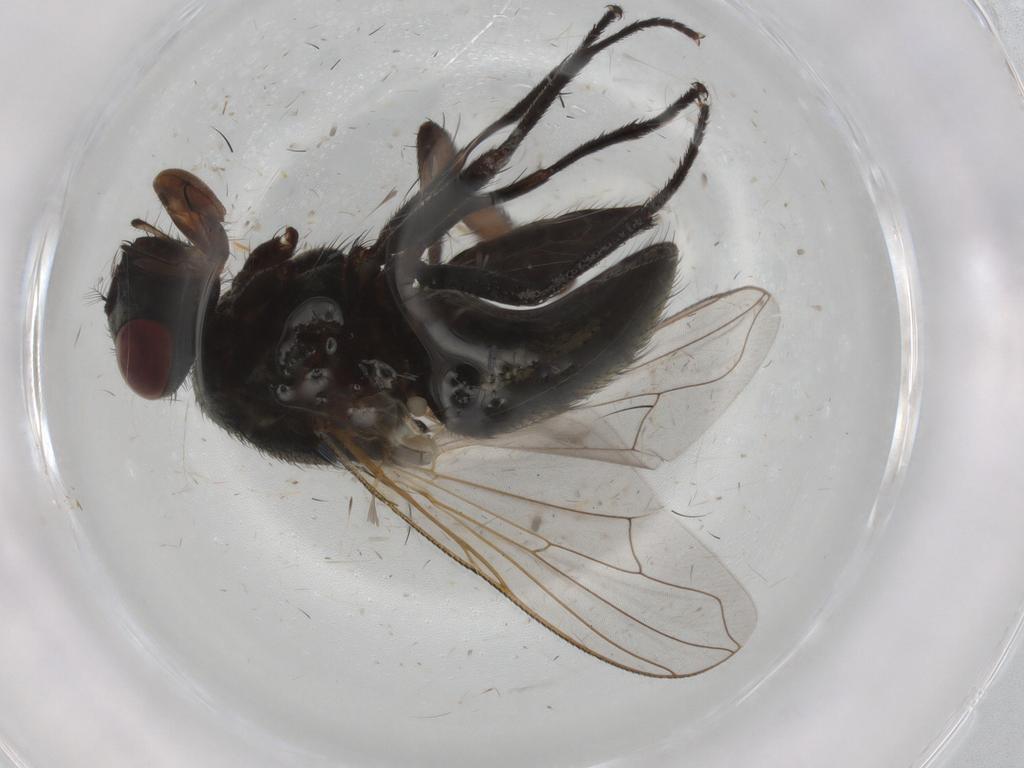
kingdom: Animalia
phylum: Arthropoda
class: Insecta
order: Diptera
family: Muscidae
